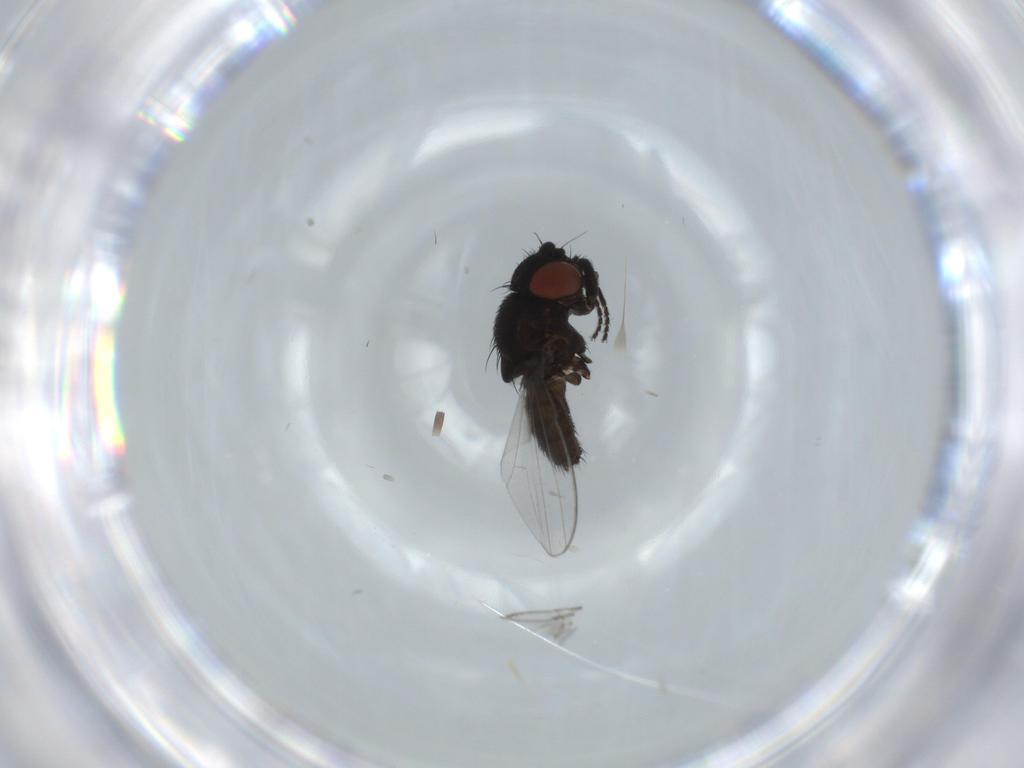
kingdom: Animalia
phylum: Arthropoda
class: Insecta
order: Diptera
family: Milichiidae
